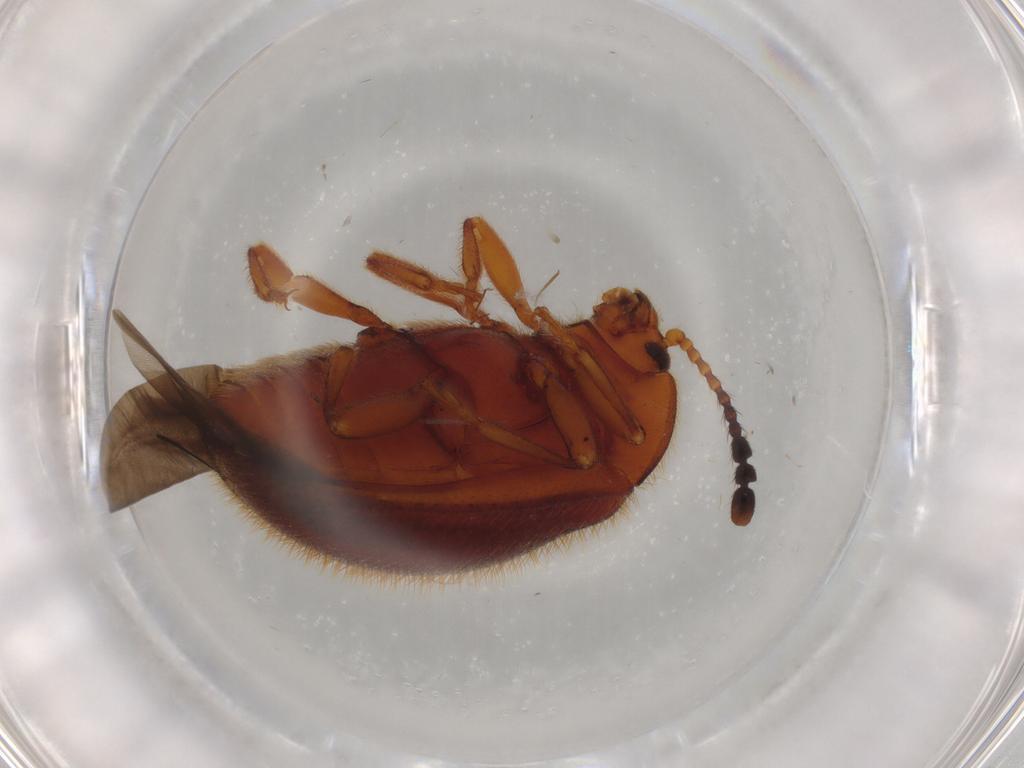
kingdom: Animalia
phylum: Arthropoda
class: Insecta
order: Coleoptera
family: Endomychidae
